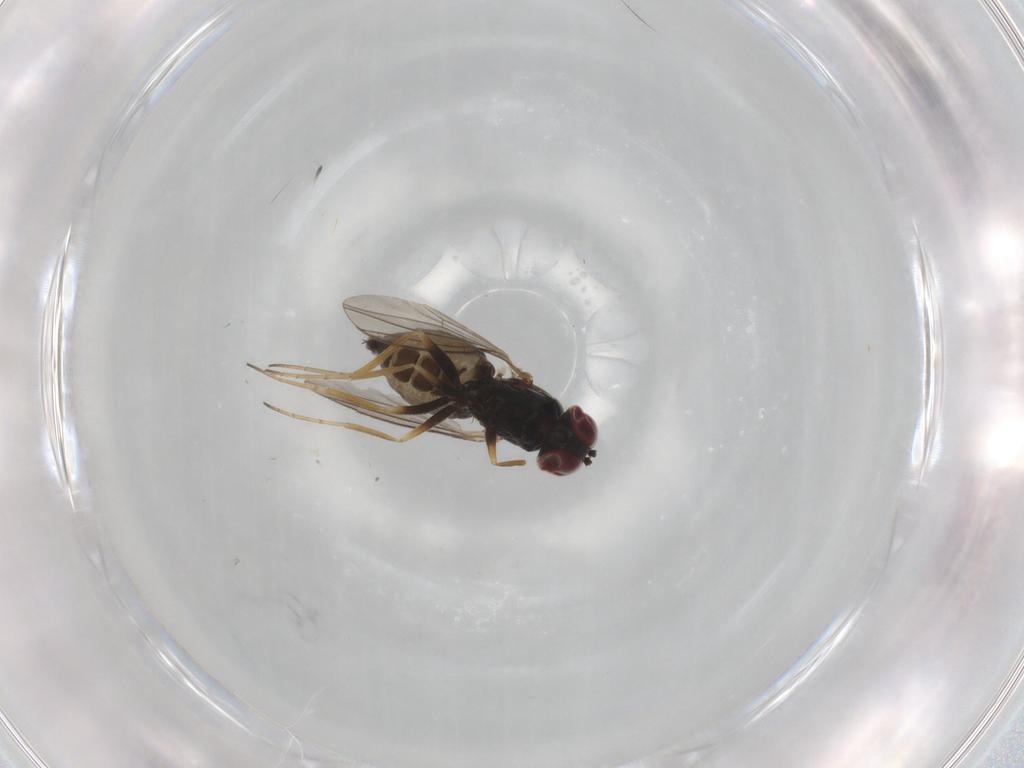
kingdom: Animalia
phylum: Arthropoda
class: Insecta
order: Diptera
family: Dolichopodidae
